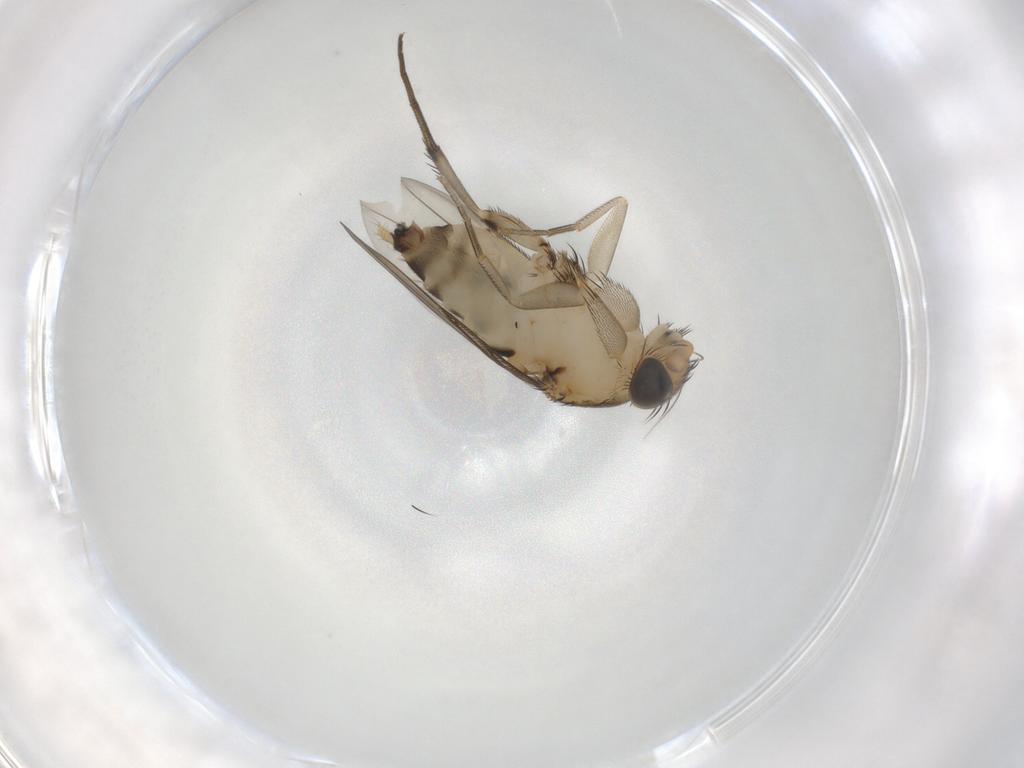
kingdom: Animalia
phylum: Arthropoda
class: Insecta
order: Diptera
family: Phoridae
